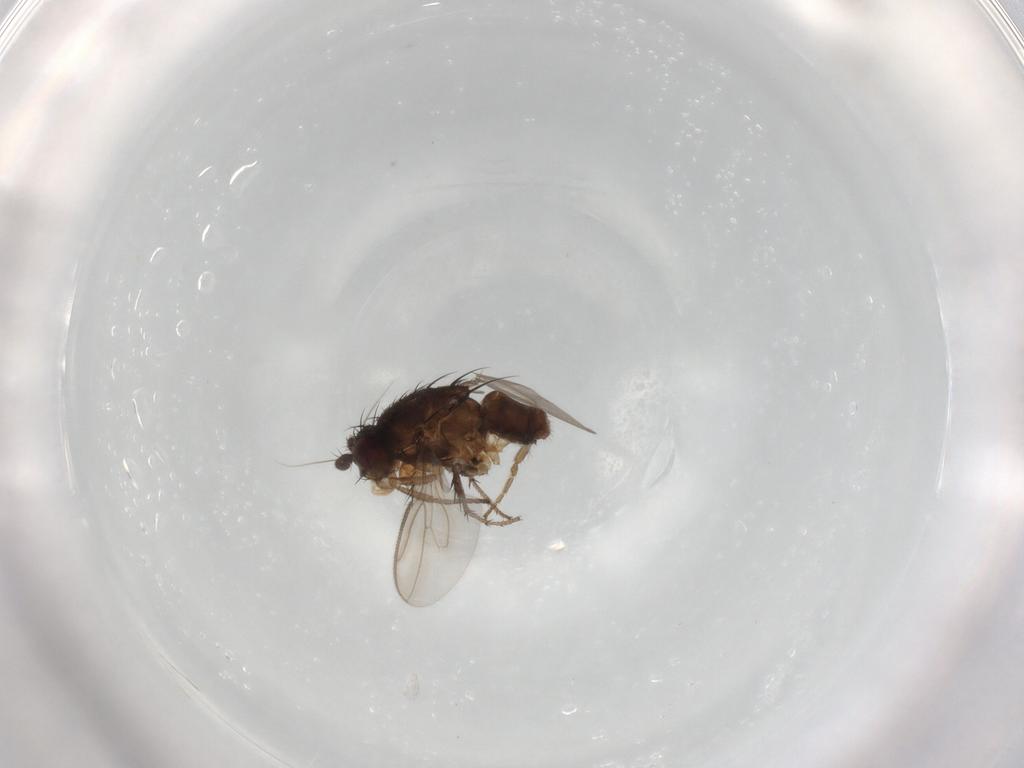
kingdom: Animalia
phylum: Arthropoda
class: Insecta
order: Diptera
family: Sphaeroceridae
